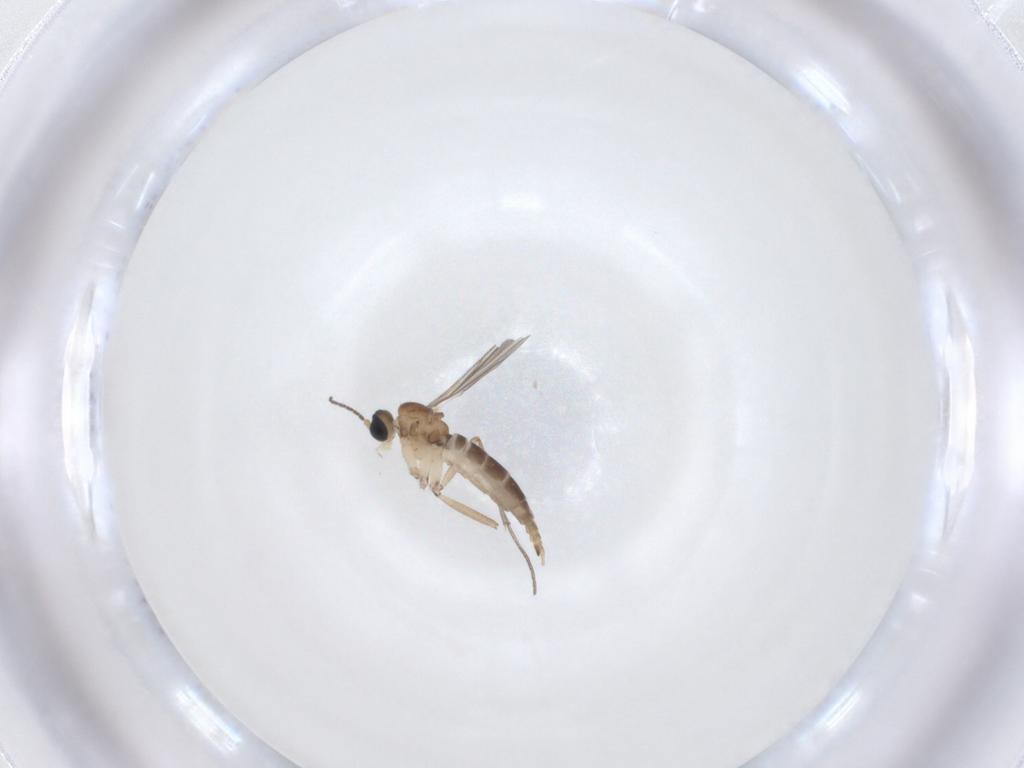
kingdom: Animalia
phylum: Arthropoda
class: Insecta
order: Diptera
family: Sciaridae
